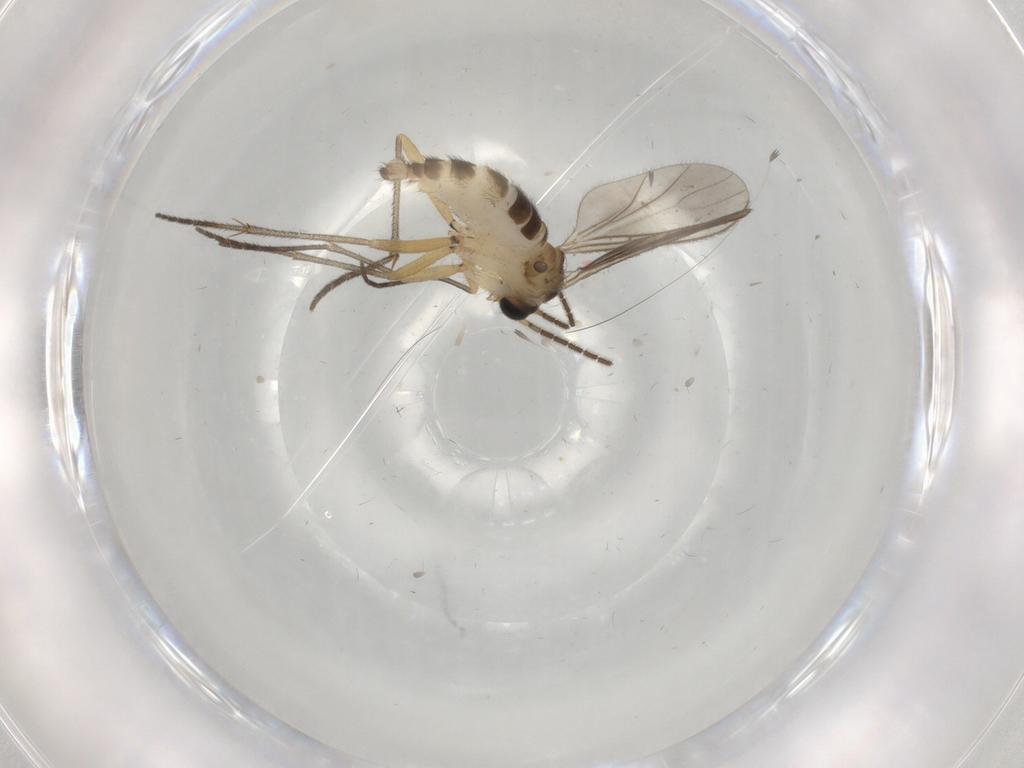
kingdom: Animalia
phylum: Arthropoda
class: Insecta
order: Diptera
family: Sciaridae
